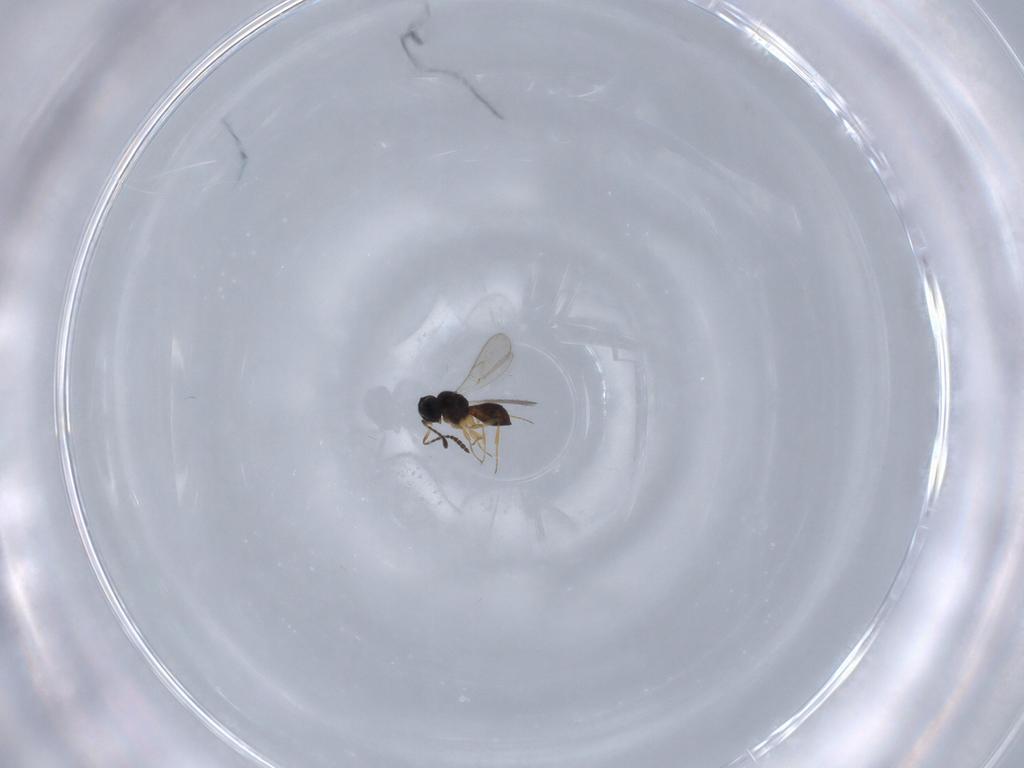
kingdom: Animalia
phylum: Arthropoda
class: Insecta
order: Hymenoptera
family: Scelionidae
